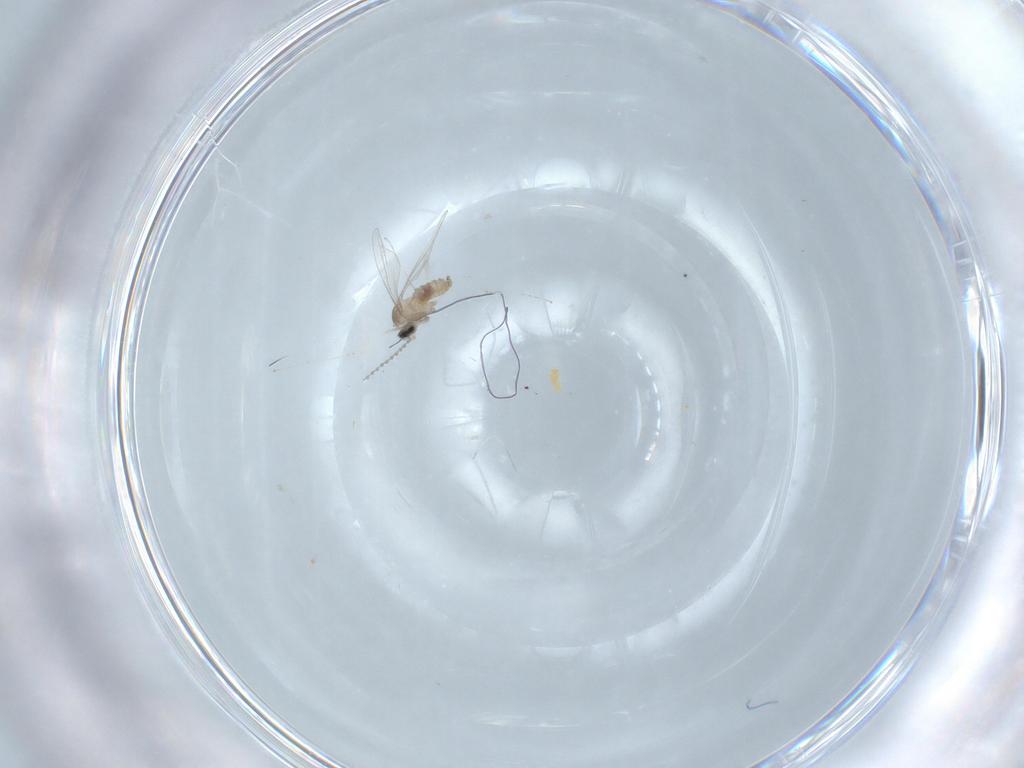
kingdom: Animalia
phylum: Arthropoda
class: Insecta
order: Diptera
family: Cecidomyiidae
